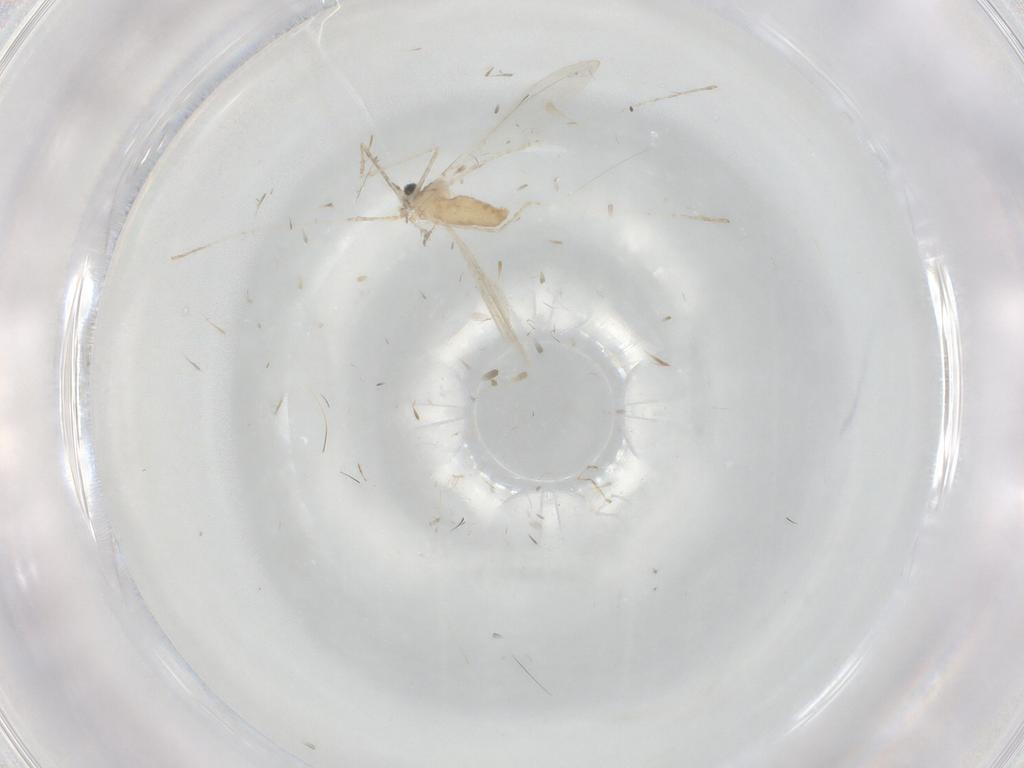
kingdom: Animalia
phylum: Arthropoda
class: Insecta
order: Diptera
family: Cecidomyiidae
